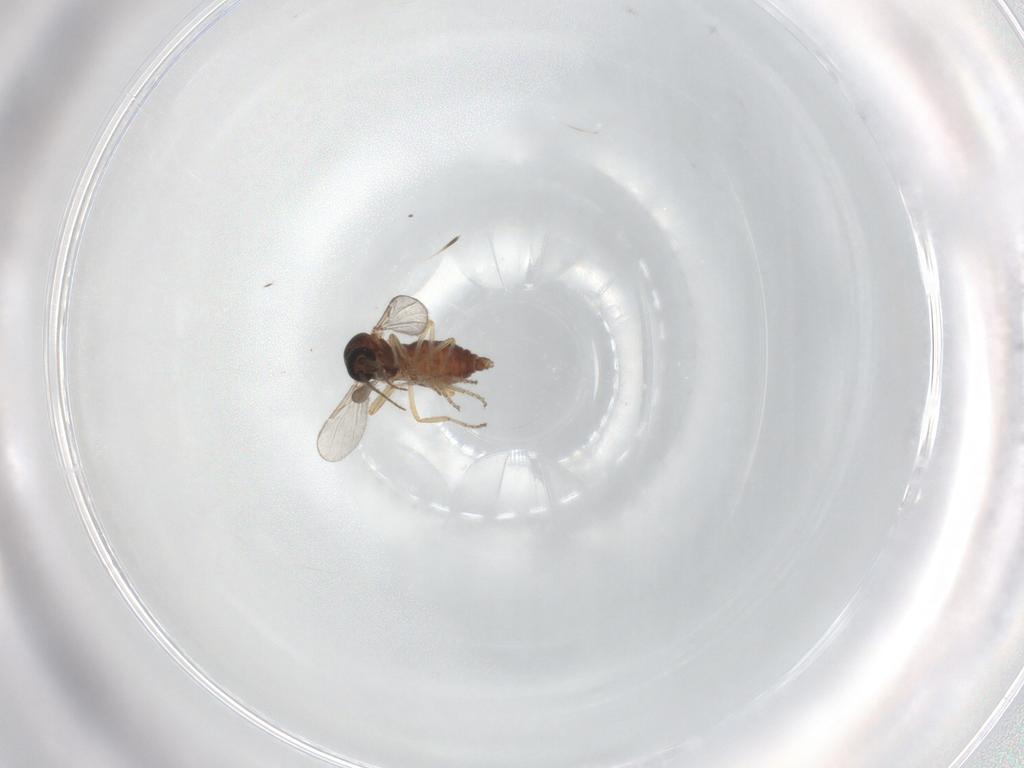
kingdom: Animalia
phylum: Arthropoda
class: Insecta
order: Diptera
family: Ceratopogonidae
